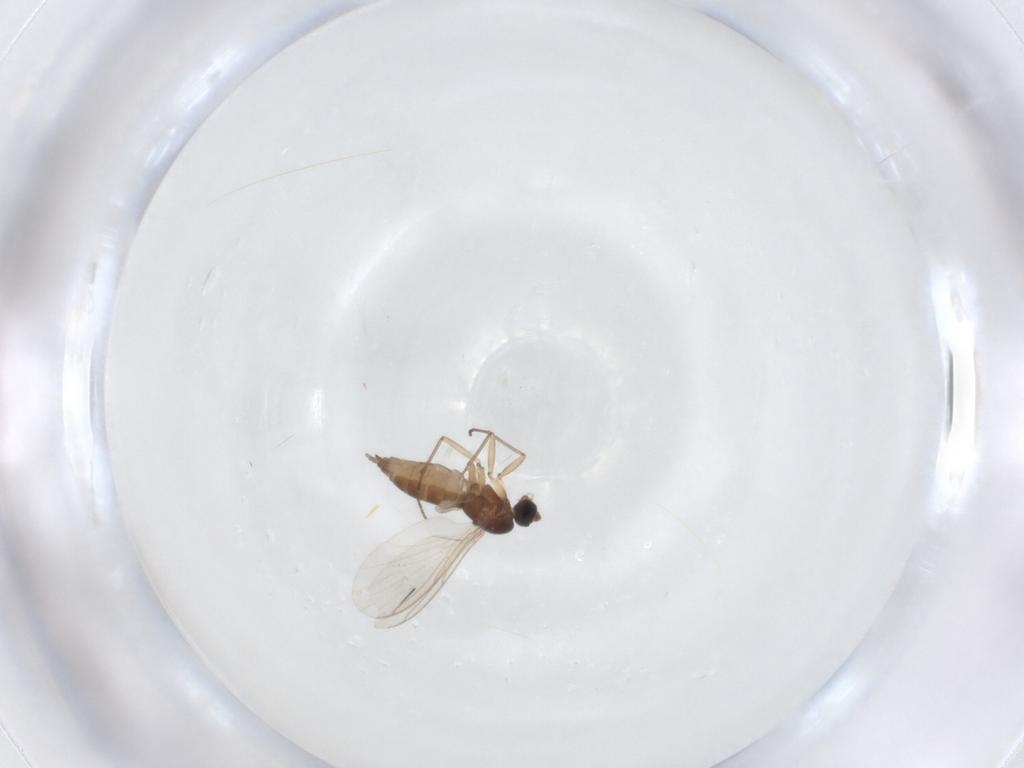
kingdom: Animalia
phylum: Arthropoda
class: Insecta
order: Diptera
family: Sciaridae
